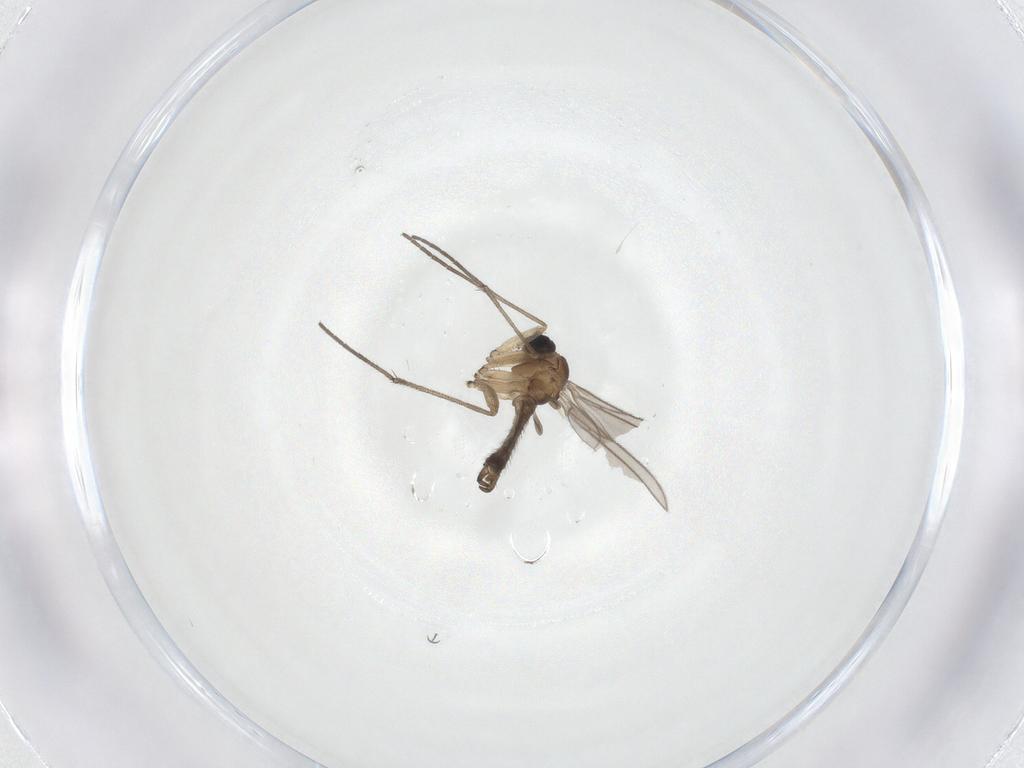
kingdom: Animalia
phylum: Arthropoda
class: Insecta
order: Diptera
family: Sciaridae
